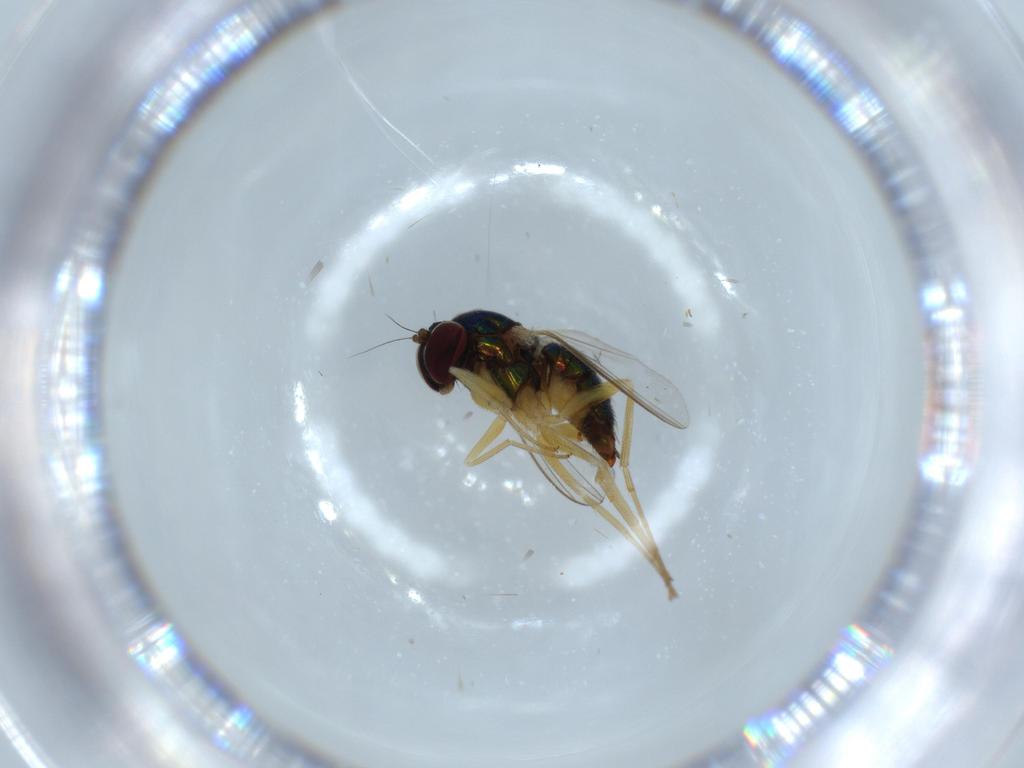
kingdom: Animalia
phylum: Arthropoda
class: Insecta
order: Diptera
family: Dolichopodidae
